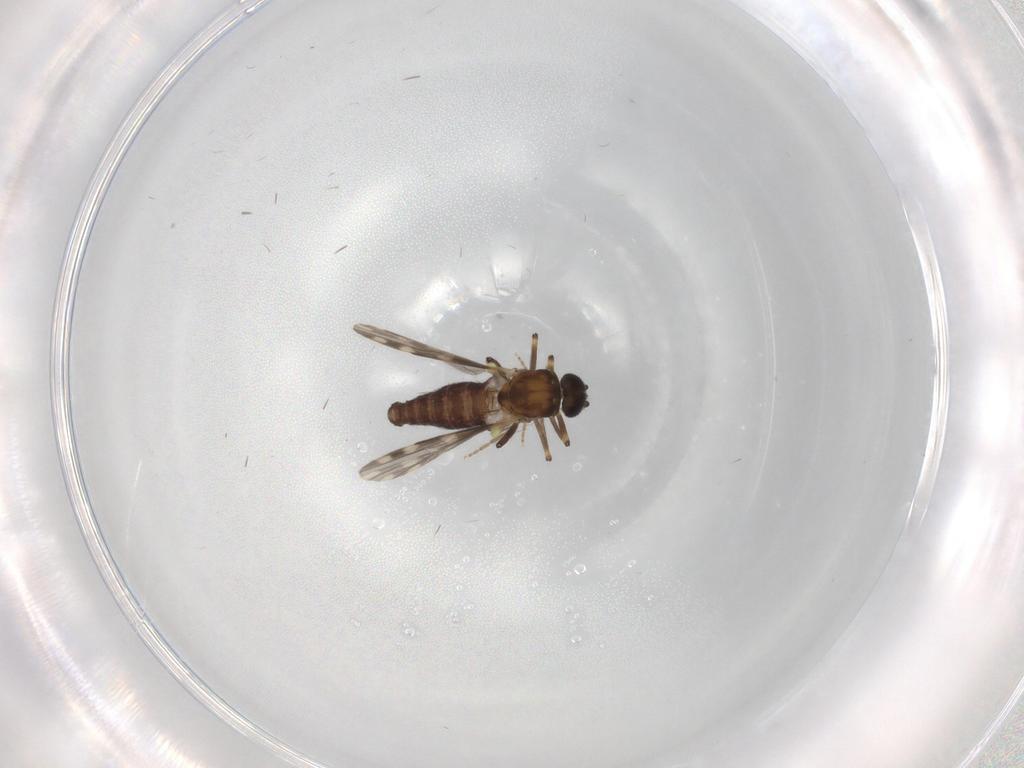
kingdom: Animalia
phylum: Arthropoda
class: Insecta
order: Diptera
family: Ceratopogonidae
